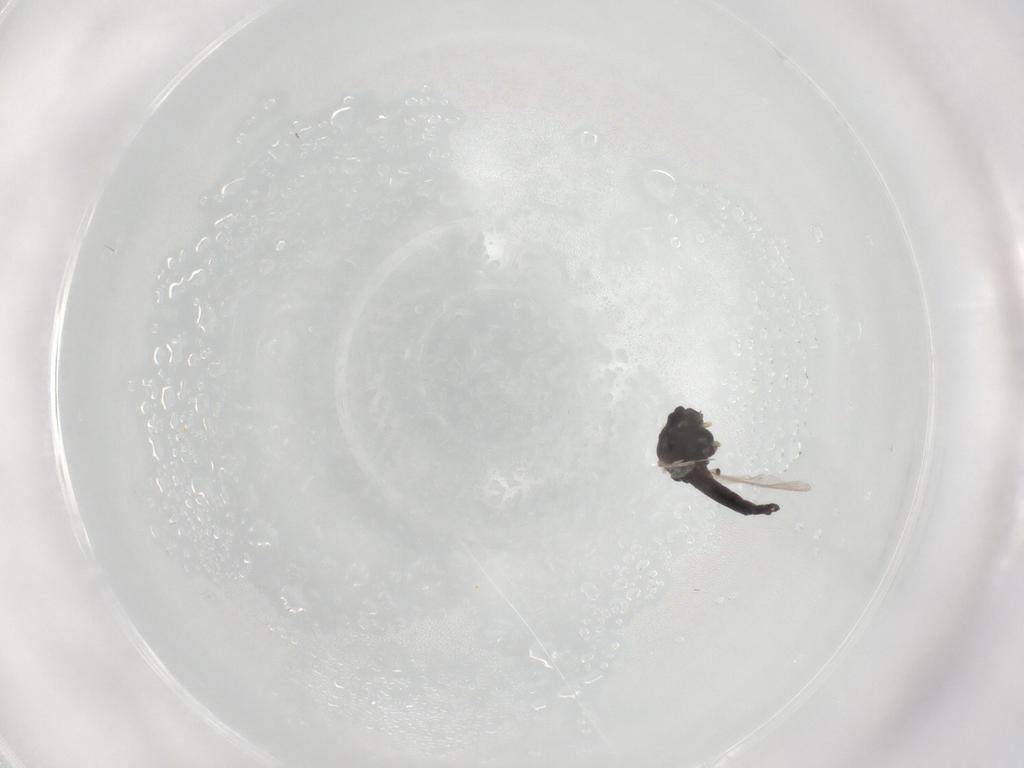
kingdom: Animalia
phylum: Arthropoda
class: Insecta
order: Diptera
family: Chironomidae
